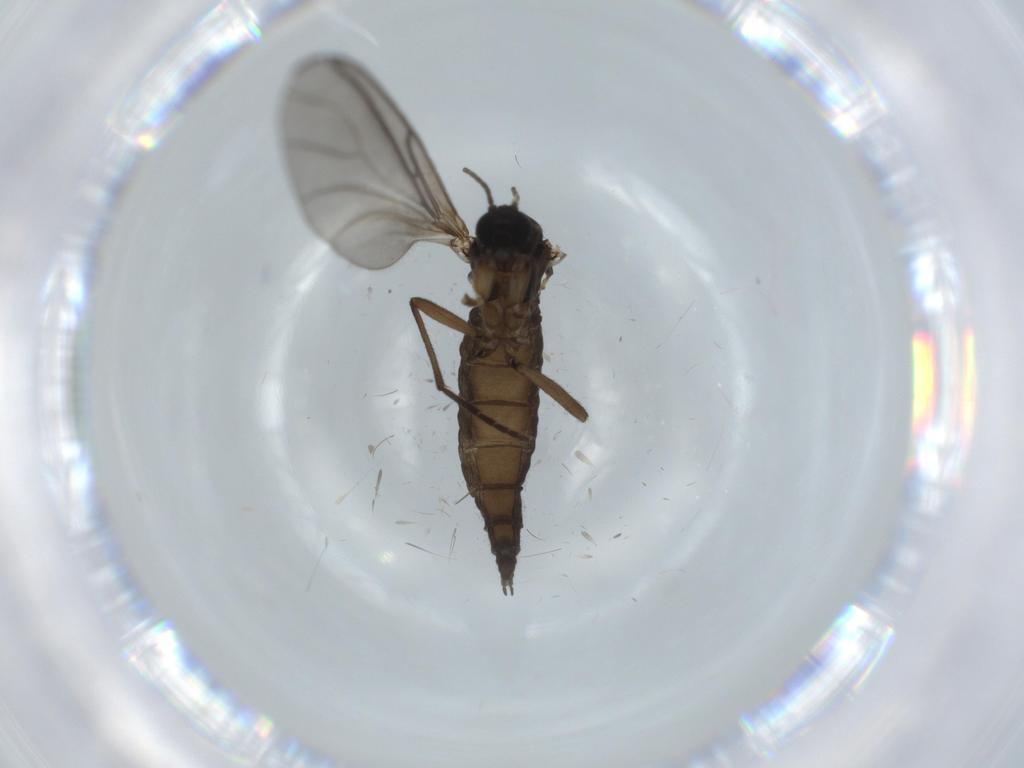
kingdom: Animalia
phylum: Arthropoda
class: Insecta
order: Diptera
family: Sciaridae
